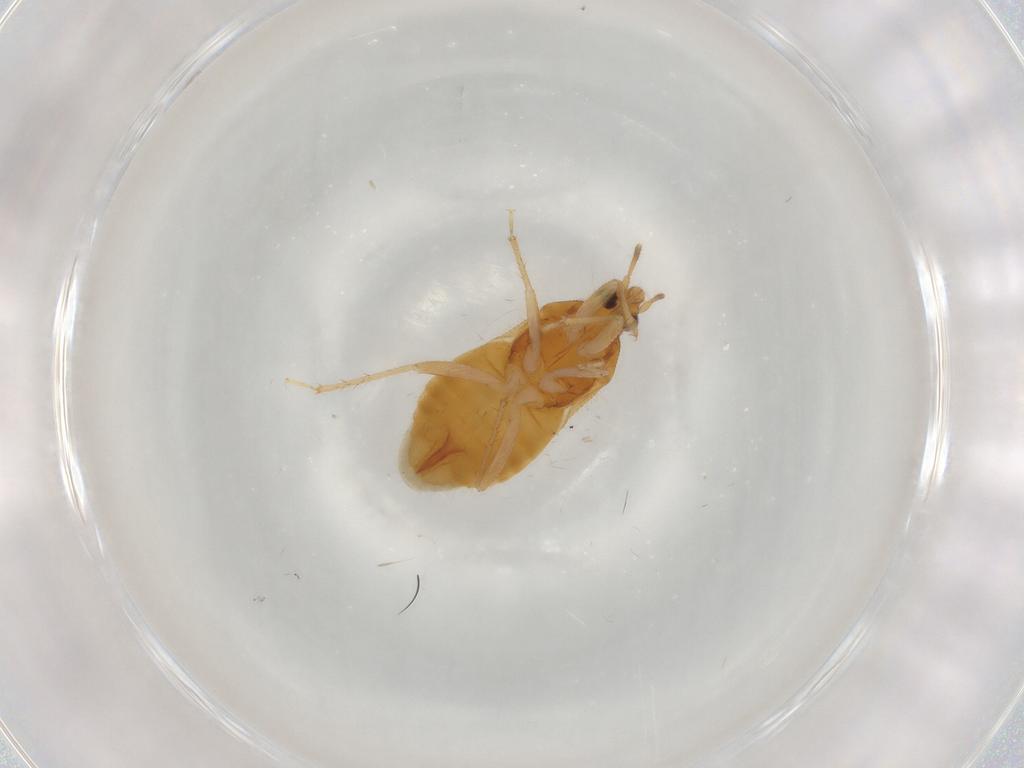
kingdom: Animalia
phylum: Arthropoda
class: Insecta
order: Hemiptera
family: Lasiochilidae
